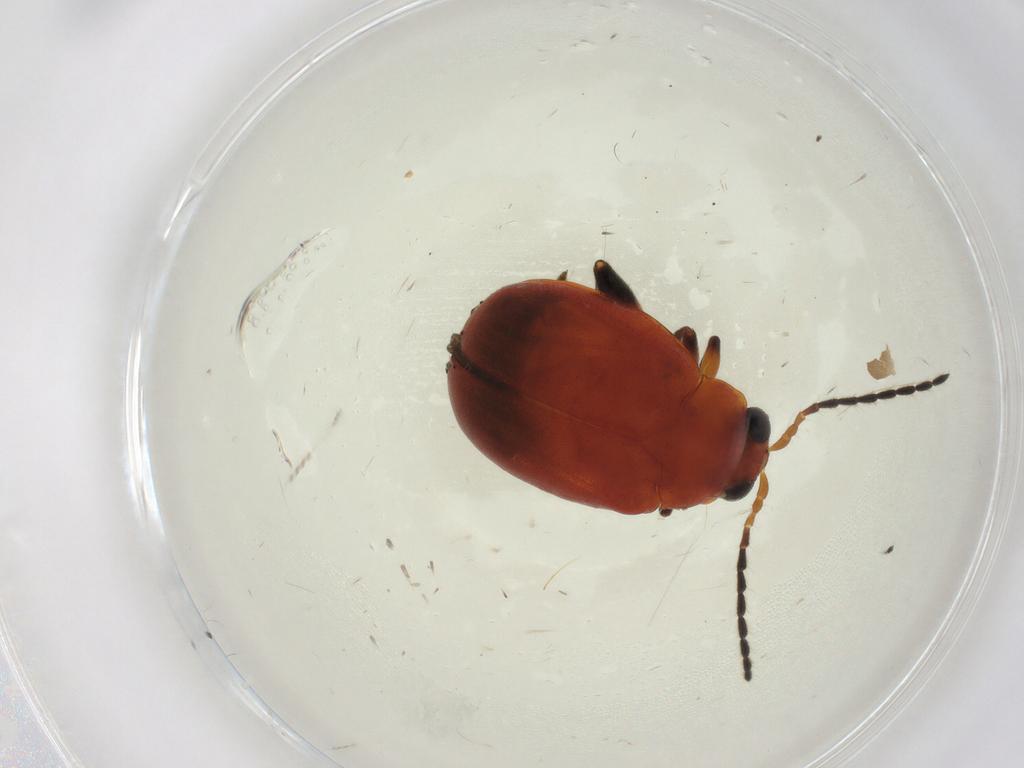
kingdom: Animalia
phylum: Arthropoda
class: Insecta
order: Coleoptera
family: Chrysomelidae
